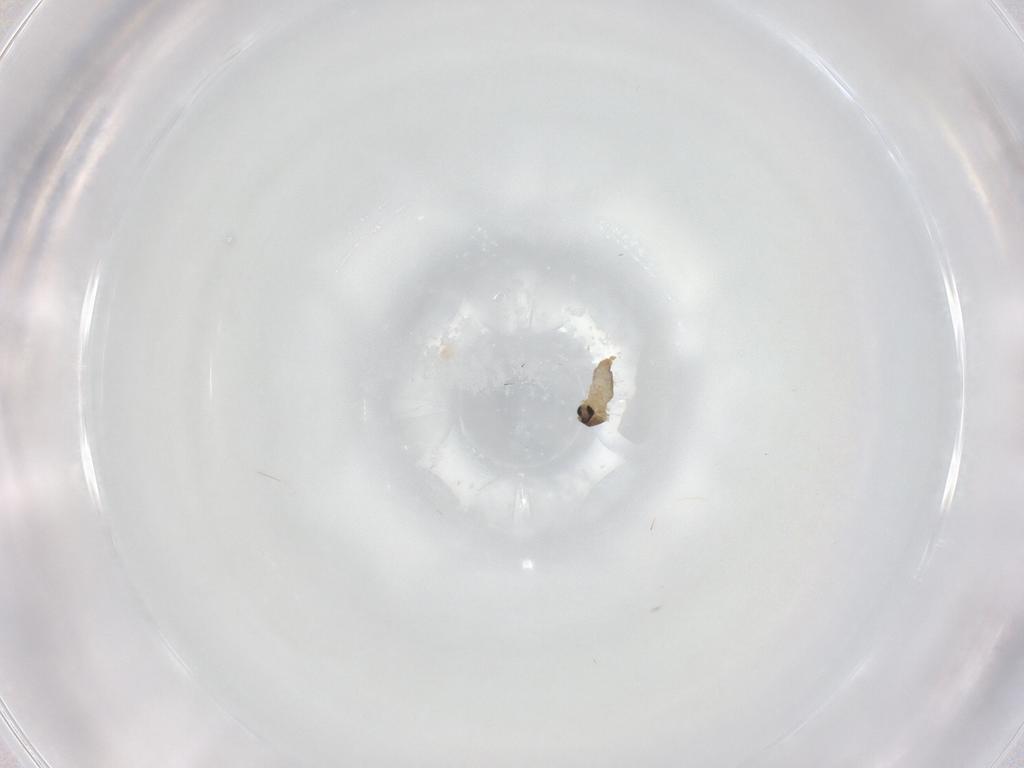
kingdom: Animalia
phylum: Arthropoda
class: Insecta
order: Diptera
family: Cecidomyiidae
